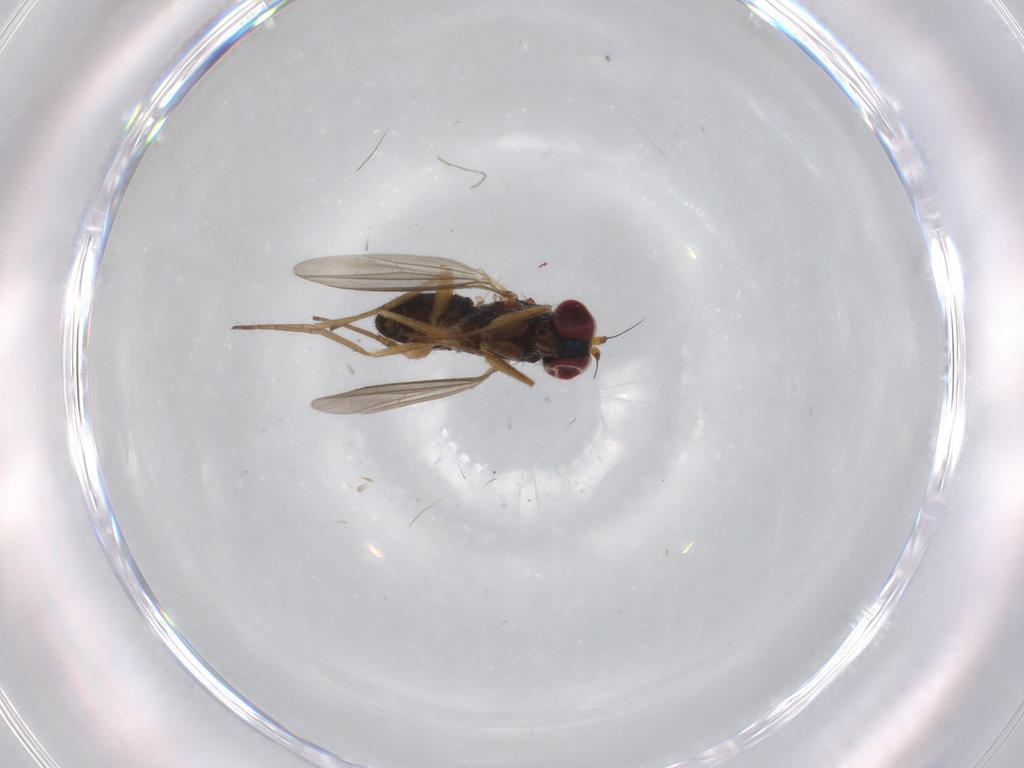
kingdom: Animalia
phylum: Arthropoda
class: Insecta
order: Diptera
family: Dolichopodidae
